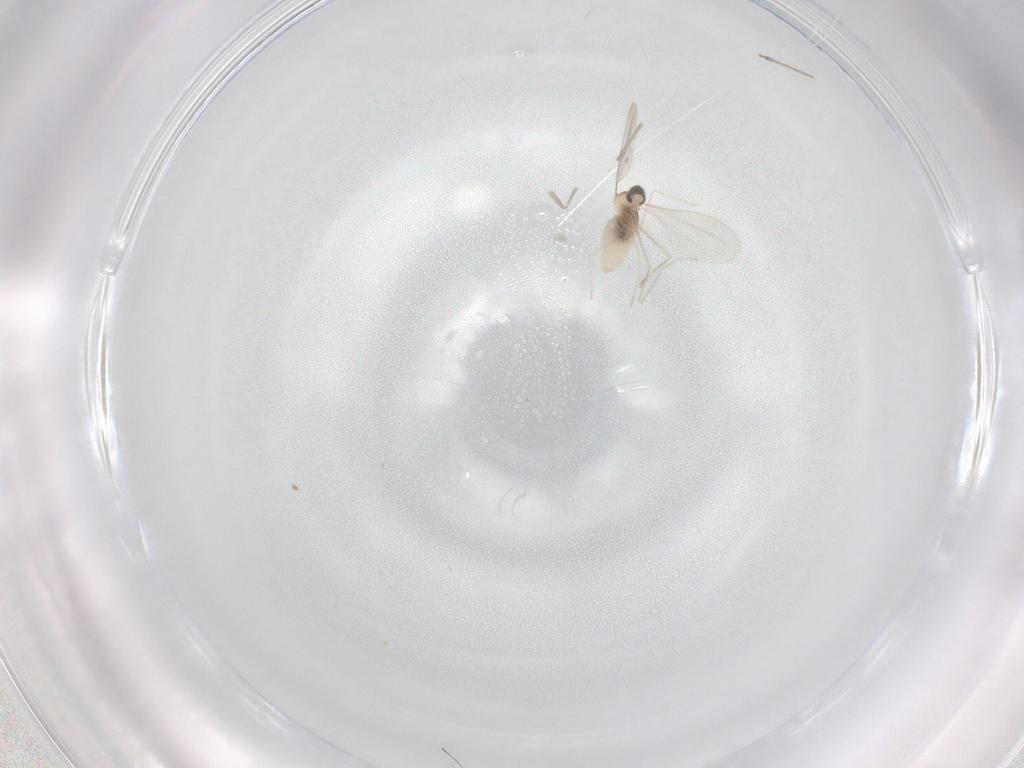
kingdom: Animalia
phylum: Arthropoda
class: Insecta
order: Diptera
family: Cecidomyiidae
